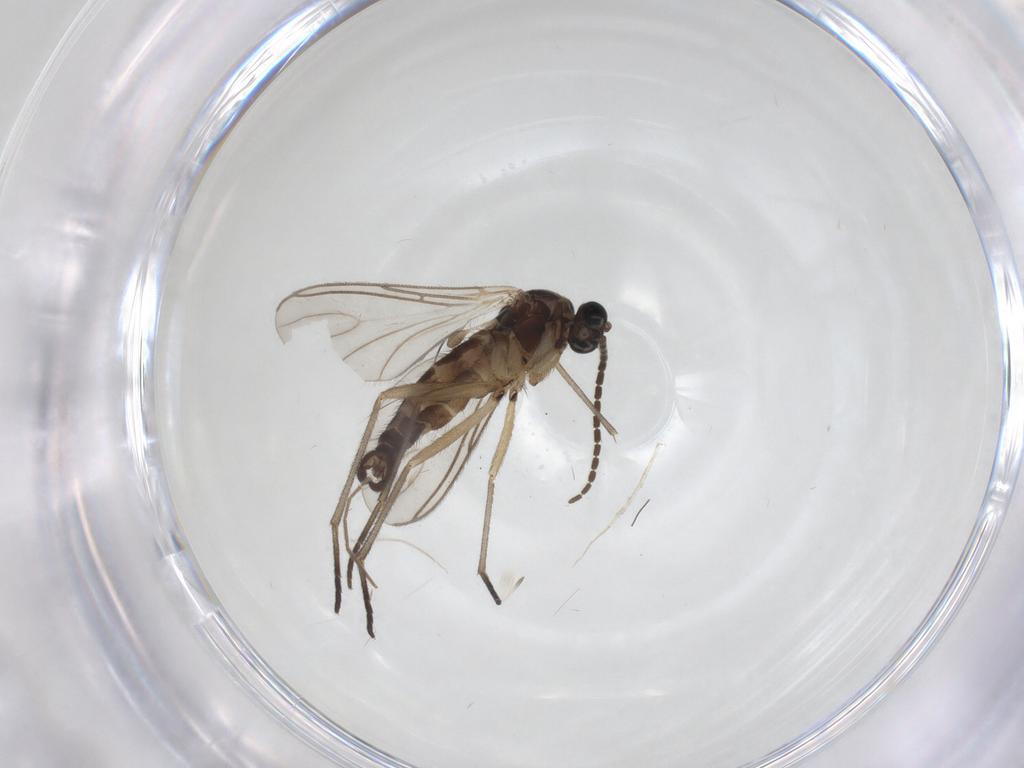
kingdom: Animalia
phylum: Arthropoda
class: Insecta
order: Diptera
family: Sciaridae
